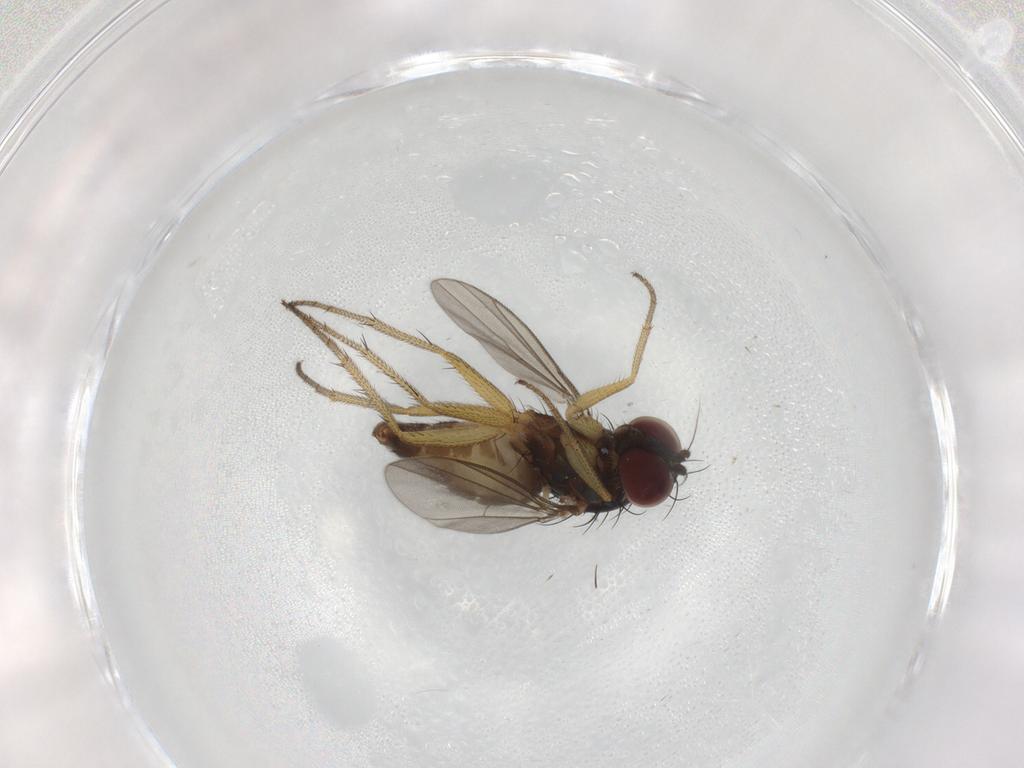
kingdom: Animalia
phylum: Arthropoda
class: Insecta
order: Diptera
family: Dolichopodidae
